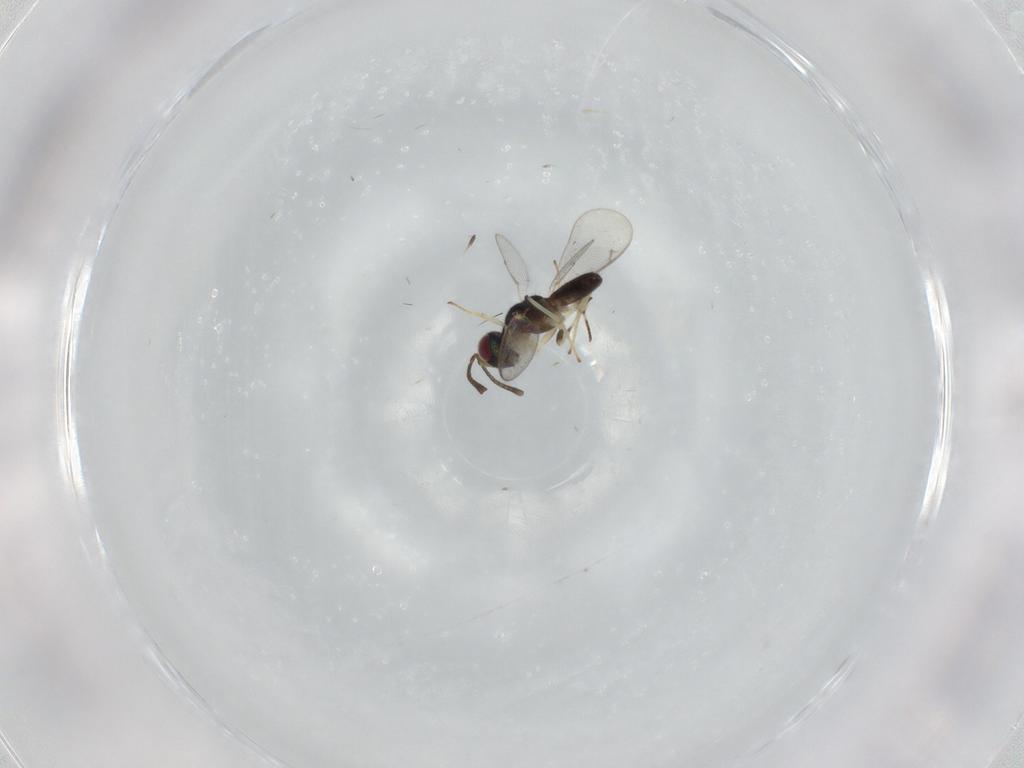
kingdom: Animalia
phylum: Arthropoda
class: Insecta
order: Hymenoptera
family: Eupelmidae
